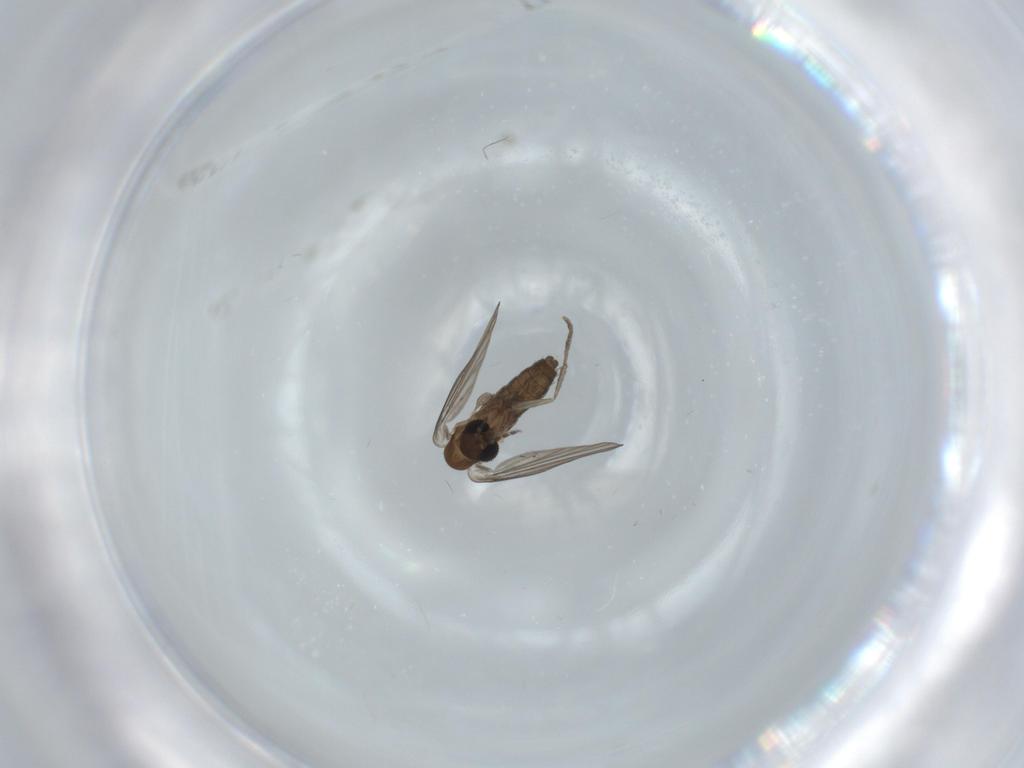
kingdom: Animalia
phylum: Arthropoda
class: Insecta
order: Diptera
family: Psychodidae
